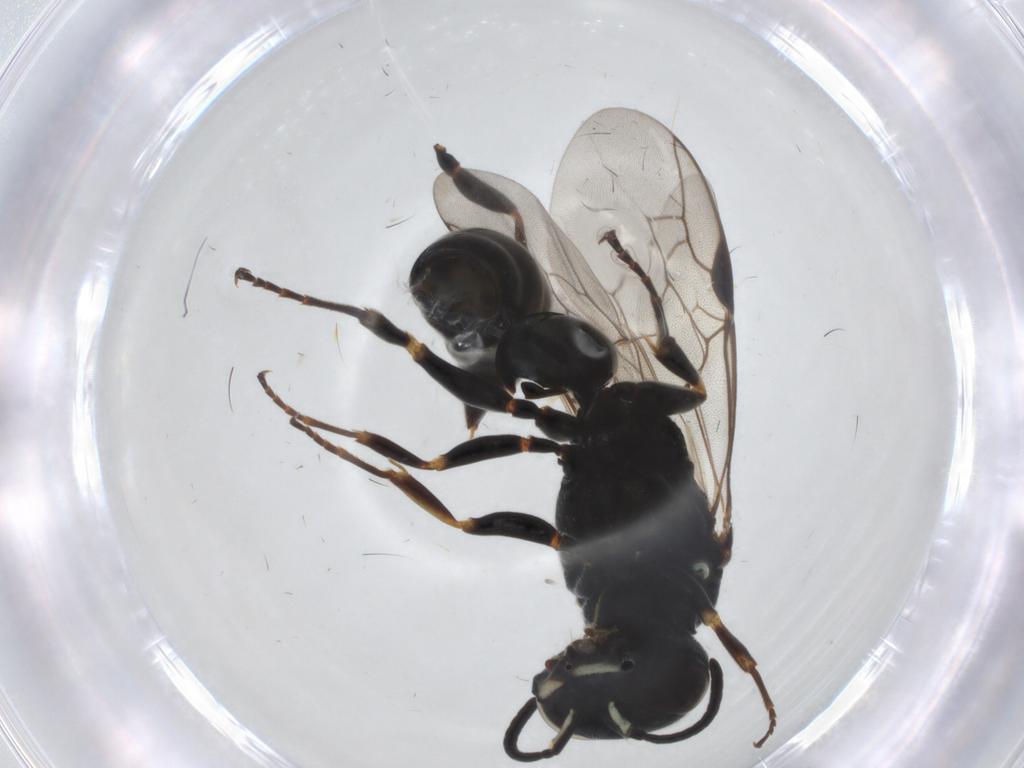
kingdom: Animalia
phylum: Arthropoda
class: Insecta
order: Hymenoptera
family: Crabronidae
